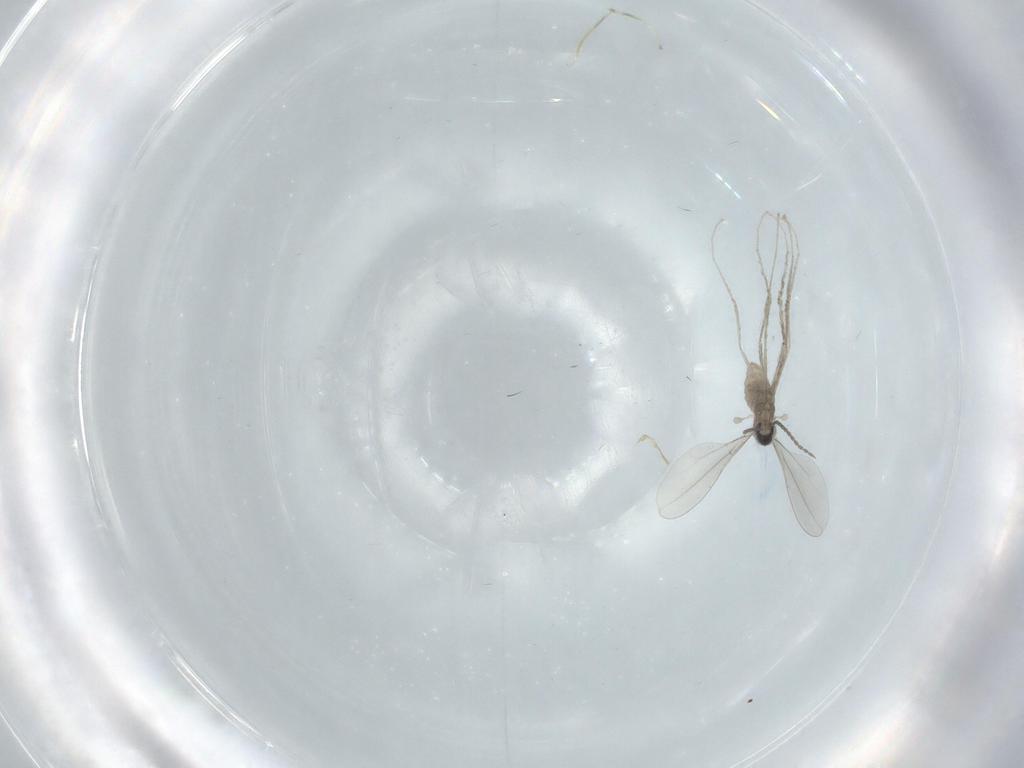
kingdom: Animalia
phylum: Arthropoda
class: Insecta
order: Diptera
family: Cecidomyiidae
